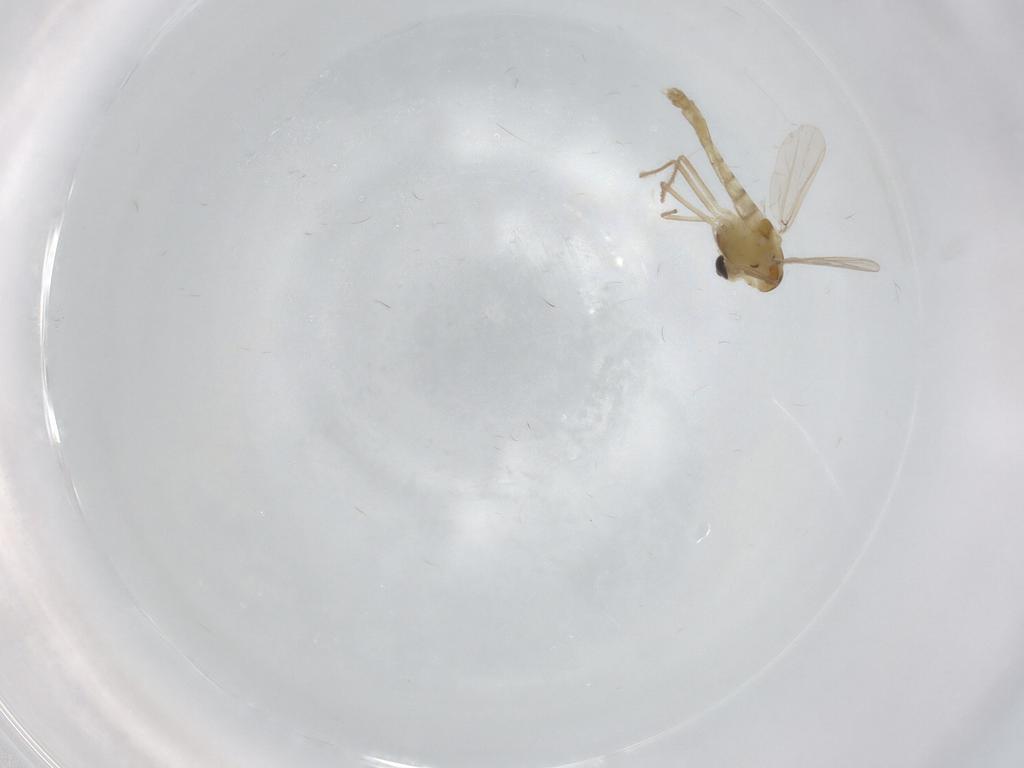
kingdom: Animalia
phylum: Arthropoda
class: Insecta
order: Diptera
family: Chironomidae
